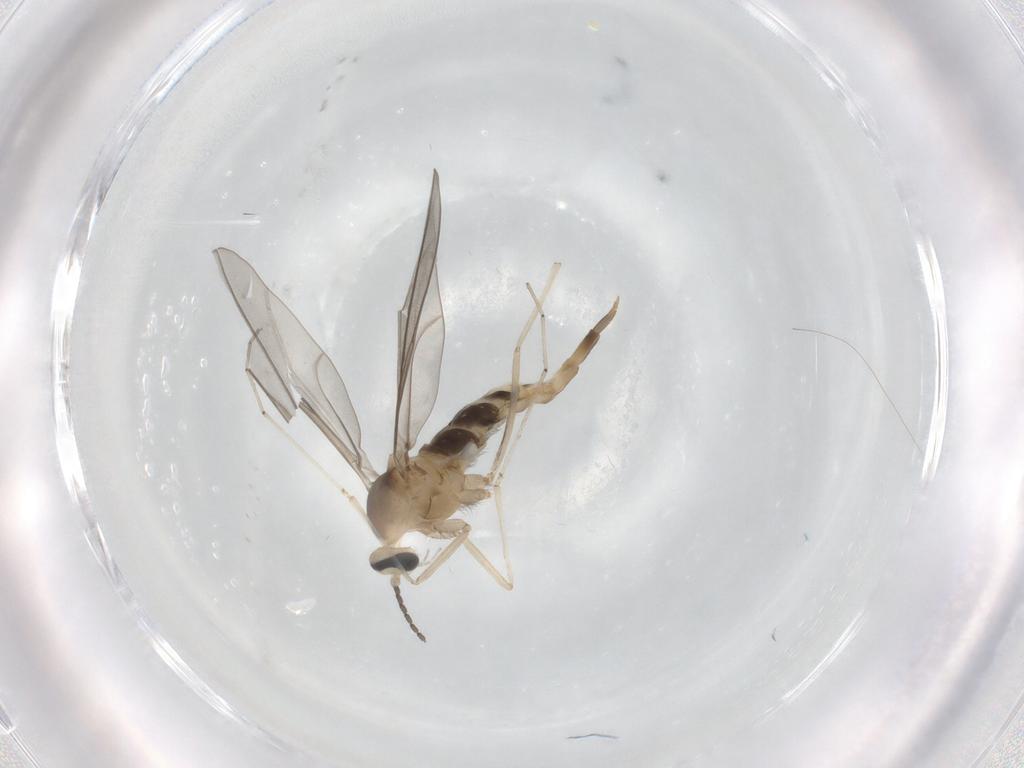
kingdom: Animalia
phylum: Arthropoda
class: Insecta
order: Diptera
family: Cecidomyiidae
